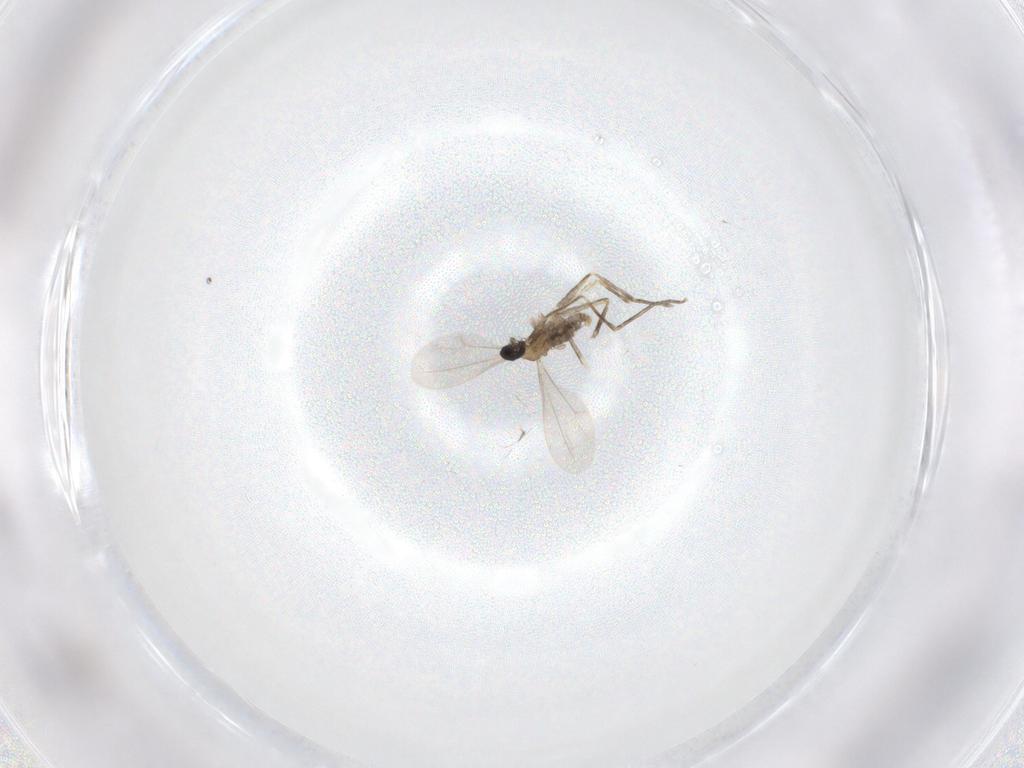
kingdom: Animalia
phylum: Arthropoda
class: Insecta
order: Diptera
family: Cecidomyiidae
